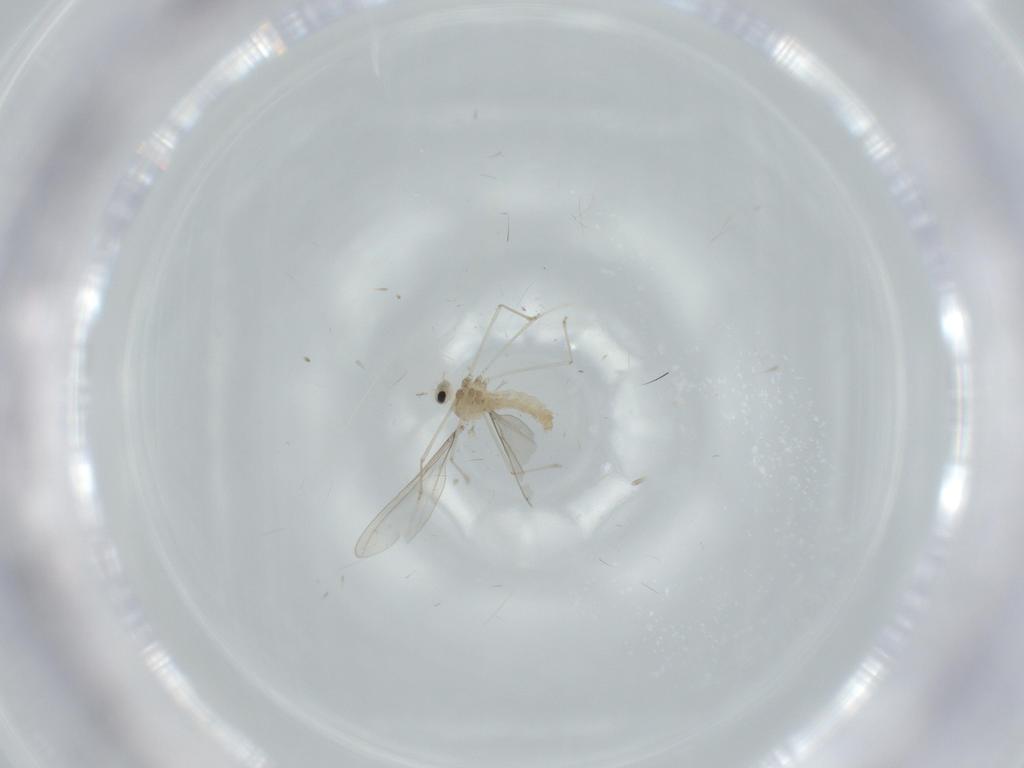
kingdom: Animalia
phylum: Arthropoda
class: Insecta
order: Diptera
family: Cecidomyiidae
